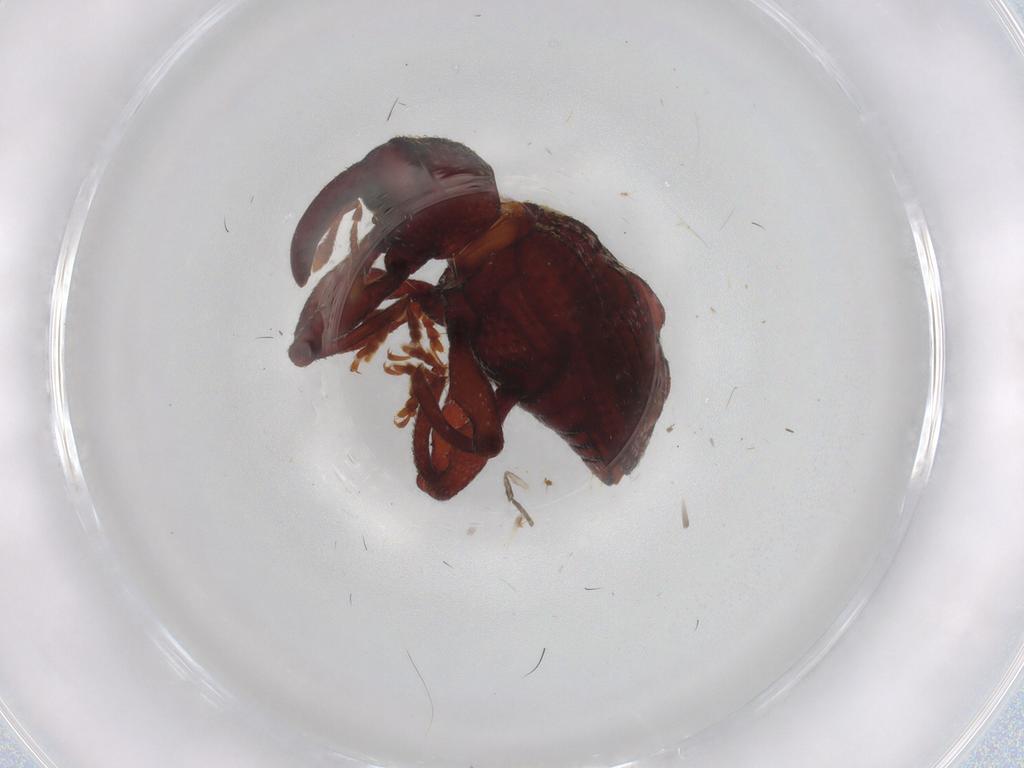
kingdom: Animalia
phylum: Arthropoda
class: Insecta
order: Coleoptera
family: Curculionidae
